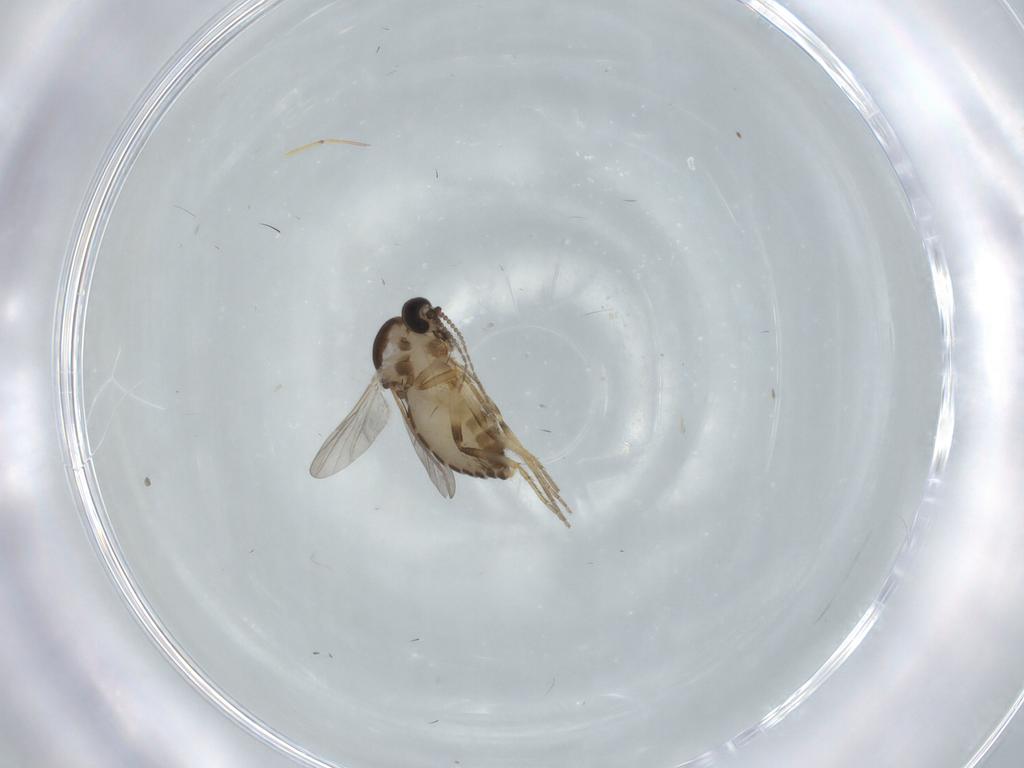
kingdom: Animalia
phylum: Arthropoda
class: Insecta
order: Diptera
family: Ceratopogonidae
